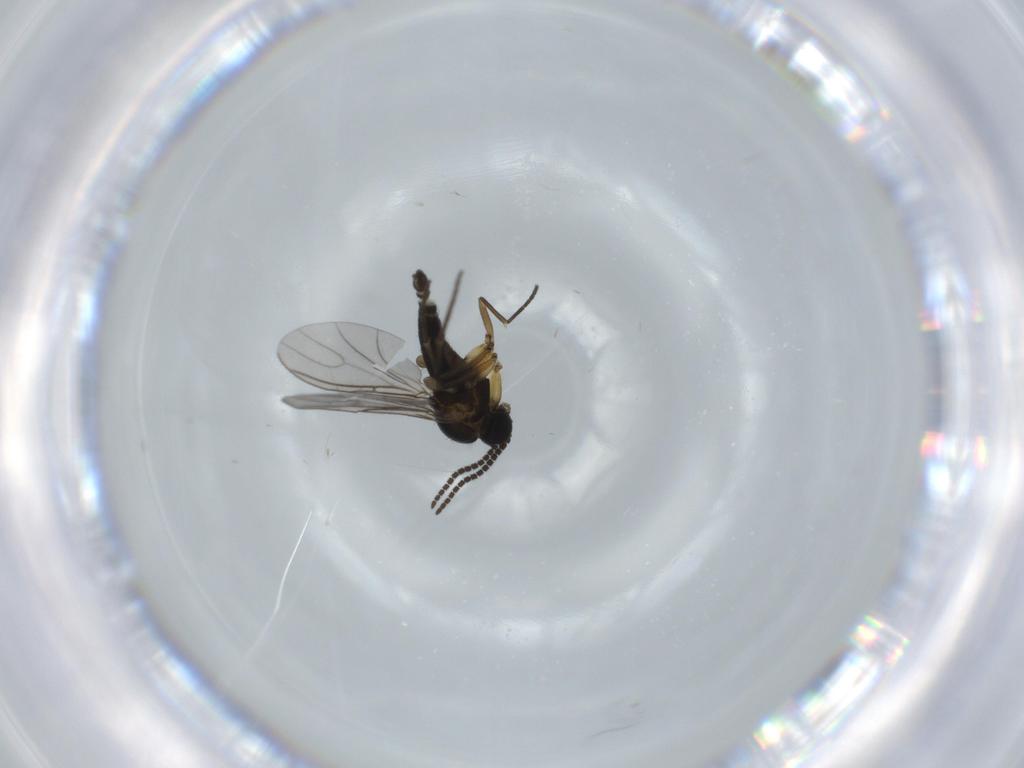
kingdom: Animalia
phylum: Arthropoda
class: Insecta
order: Diptera
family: Sciaridae
